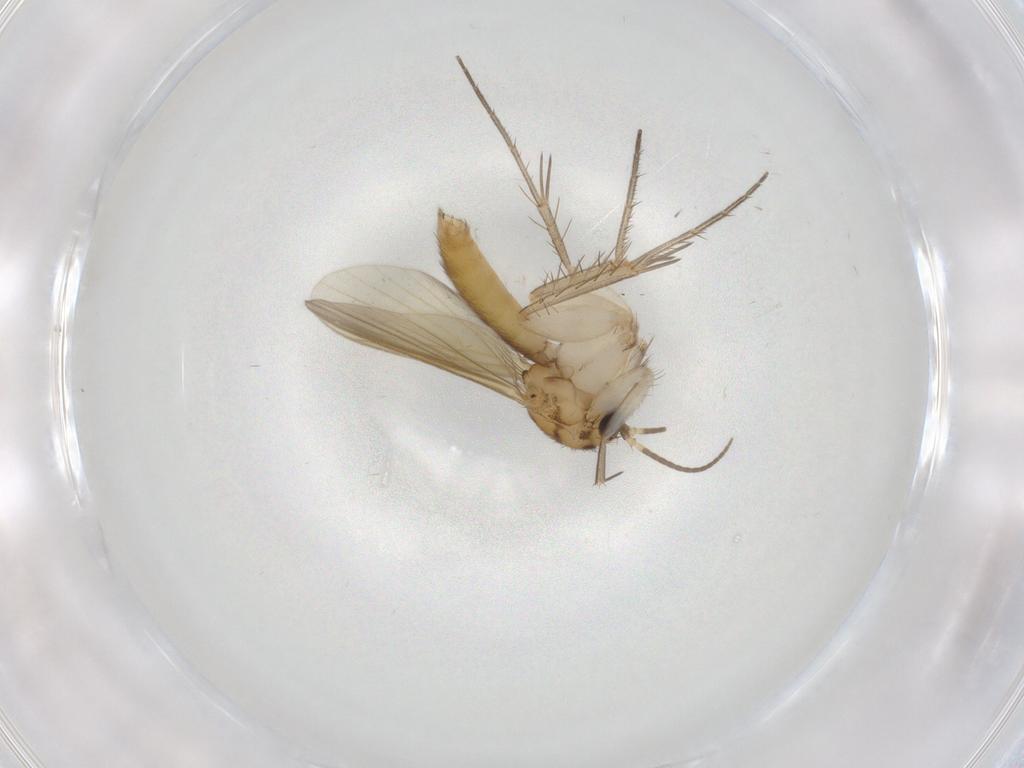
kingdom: Animalia
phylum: Arthropoda
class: Insecta
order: Diptera
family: Mycetophilidae
